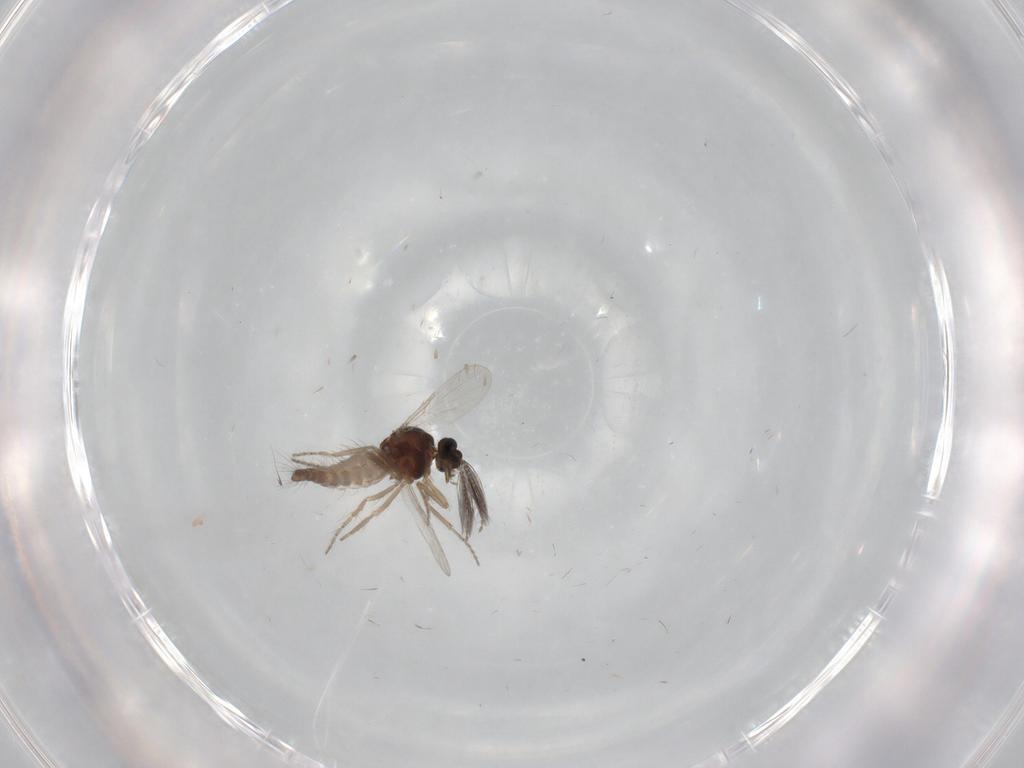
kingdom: Animalia
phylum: Arthropoda
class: Insecta
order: Diptera
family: Ceratopogonidae
